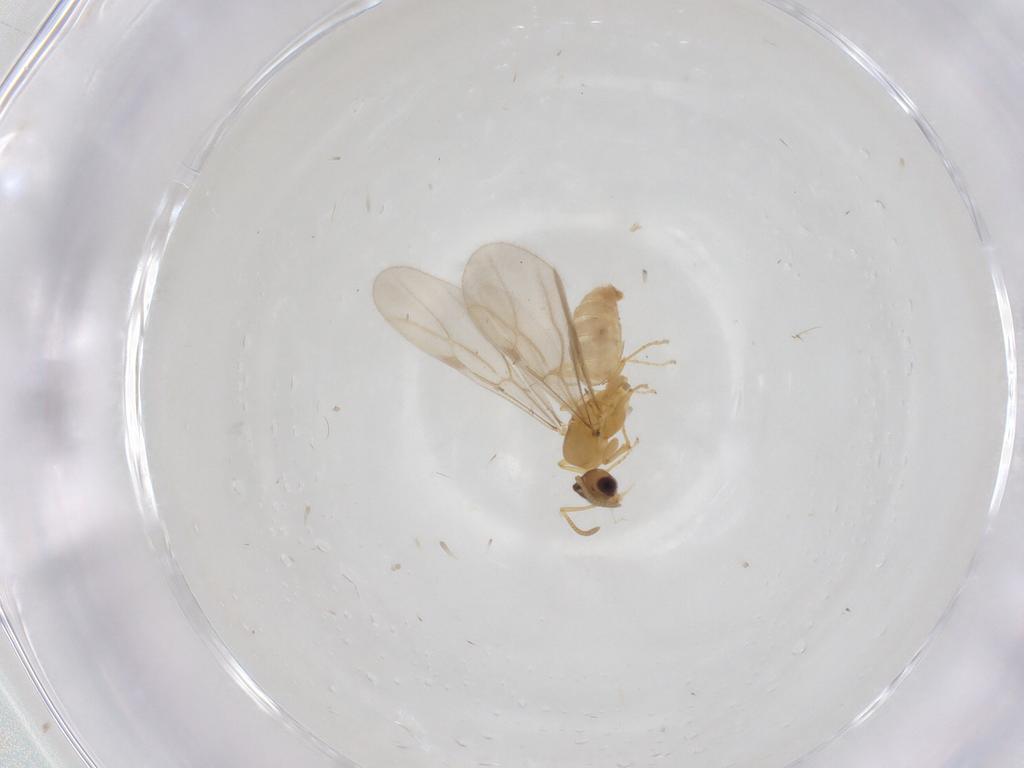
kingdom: Animalia
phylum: Arthropoda
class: Insecta
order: Hymenoptera
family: Formicidae
